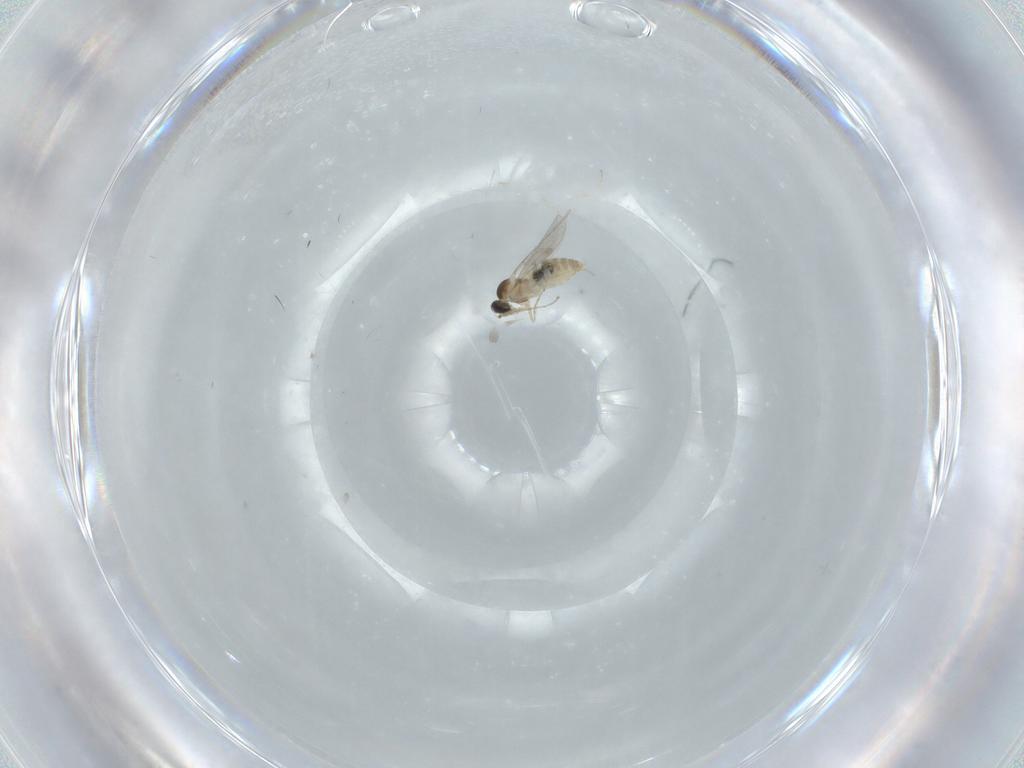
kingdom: Animalia
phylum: Arthropoda
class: Insecta
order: Diptera
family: Cecidomyiidae
